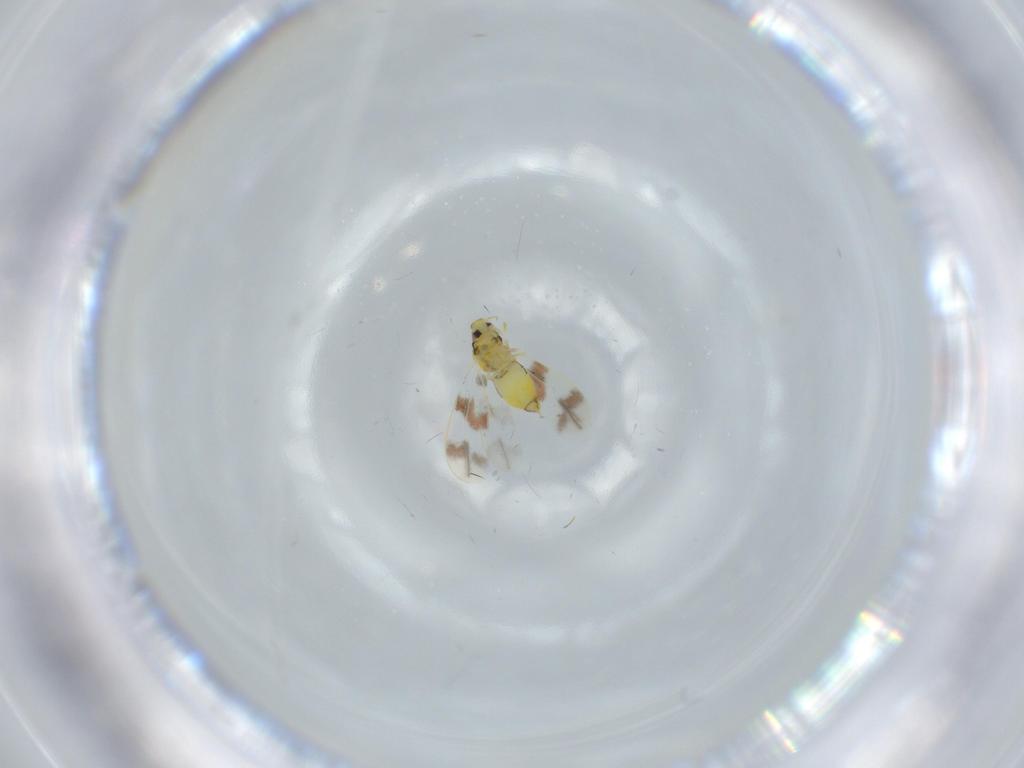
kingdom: Animalia
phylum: Arthropoda
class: Insecta
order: Hemiptera
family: Aleyrodidae
